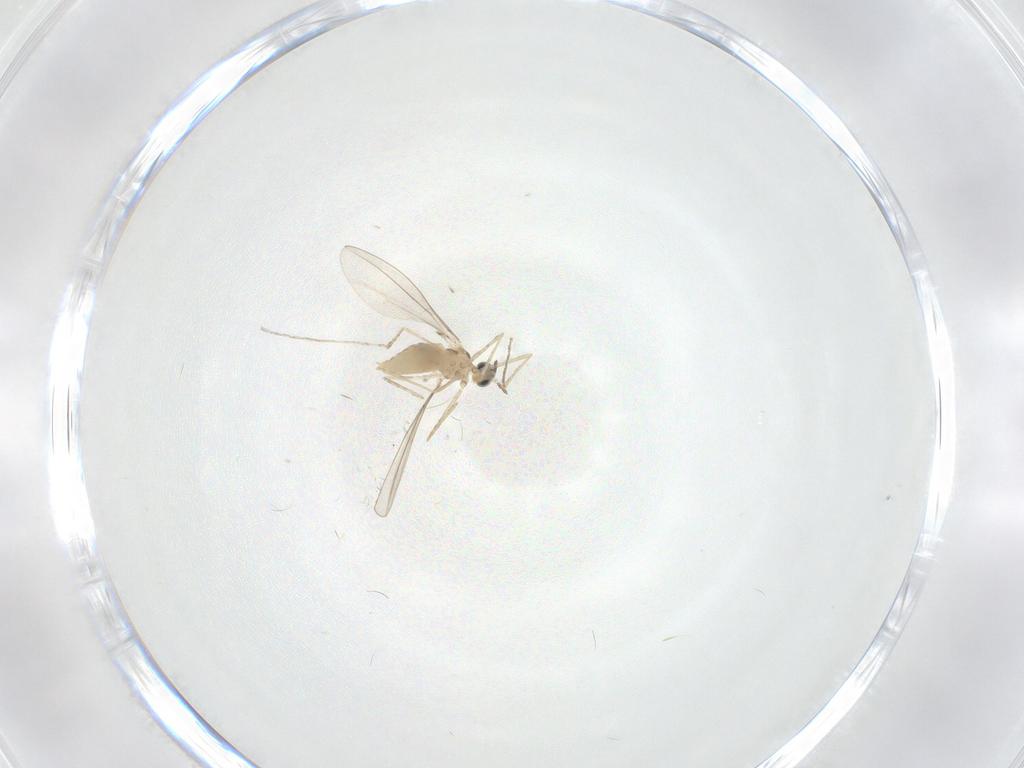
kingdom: Animalia
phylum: Arthropoda
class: Insecta
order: Diptera
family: Cecidomyiidae
